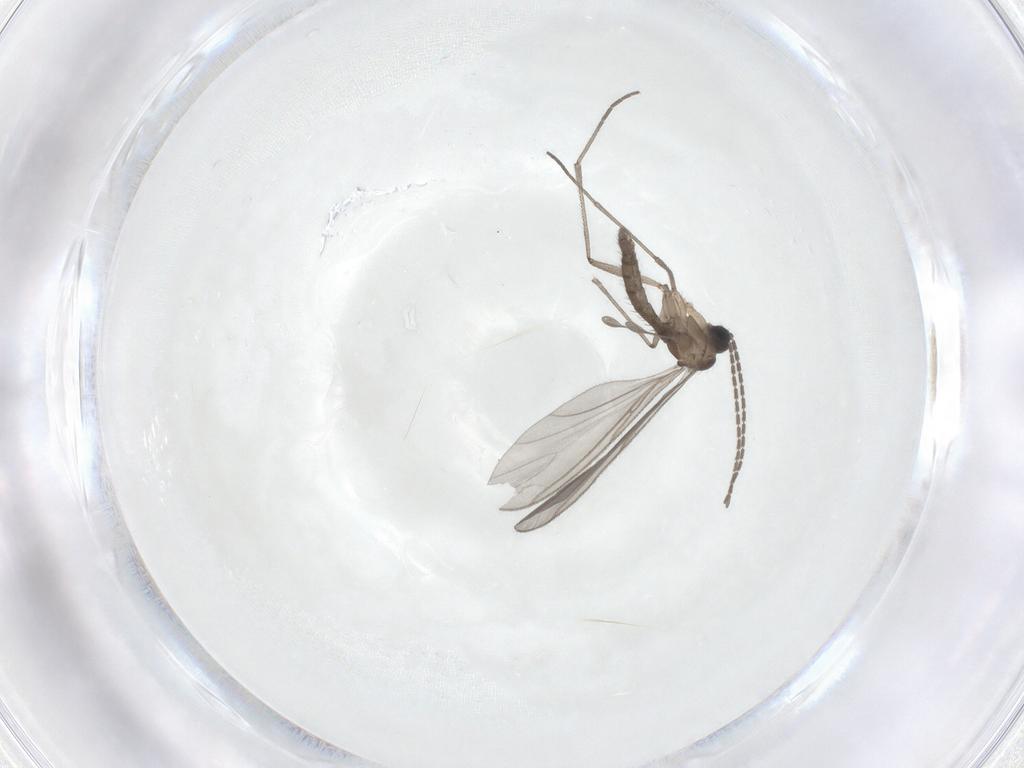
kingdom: Animalia
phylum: Arthropoda
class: Insecta
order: Diptera
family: Sciaridae
